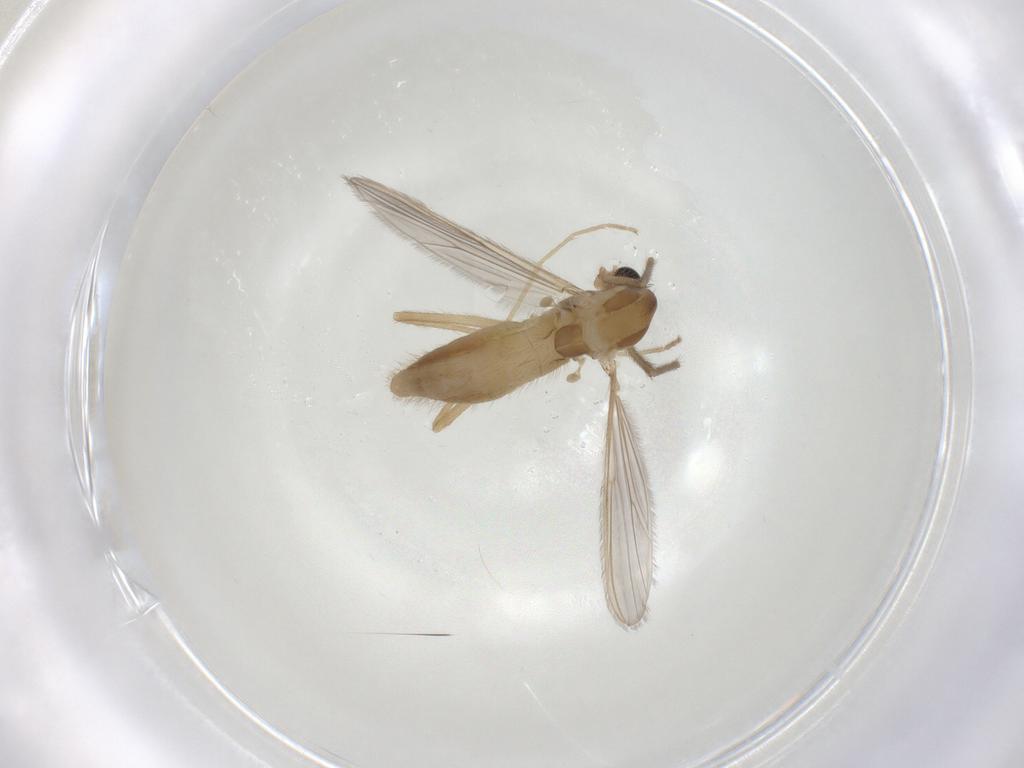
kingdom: Animalia
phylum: Arthropoda
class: Insecta
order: Diptera
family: Chironomidae
